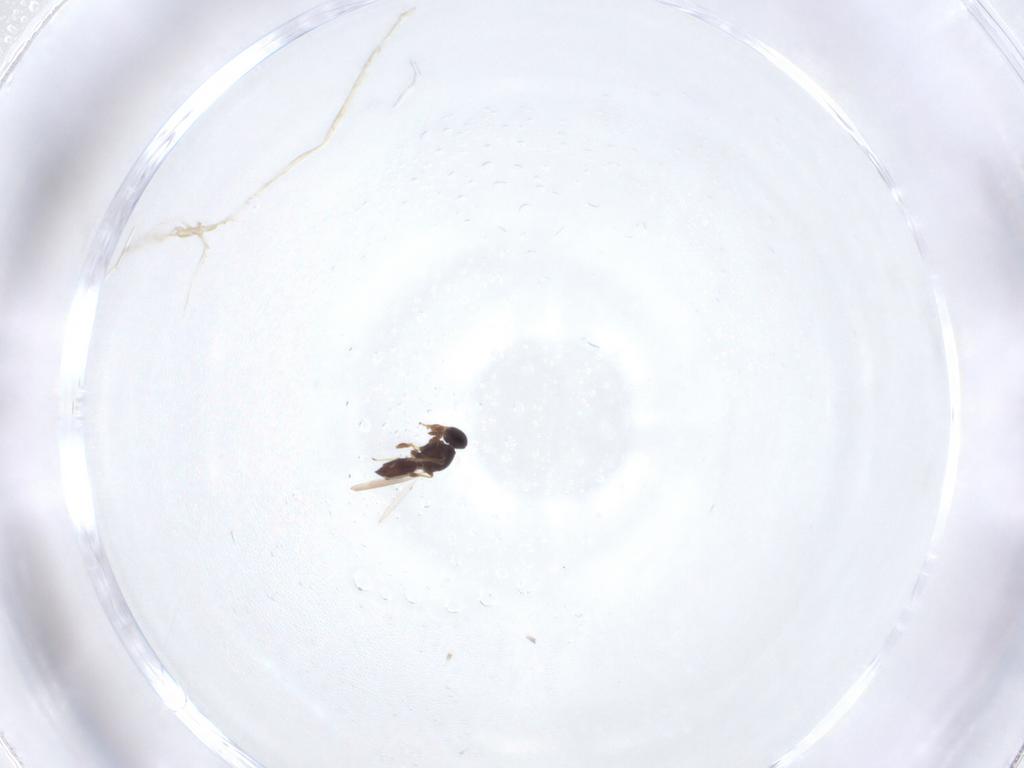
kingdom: Animalia
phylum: Arthropoda
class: Insecta
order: Hymenoptera
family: Platygastridae
